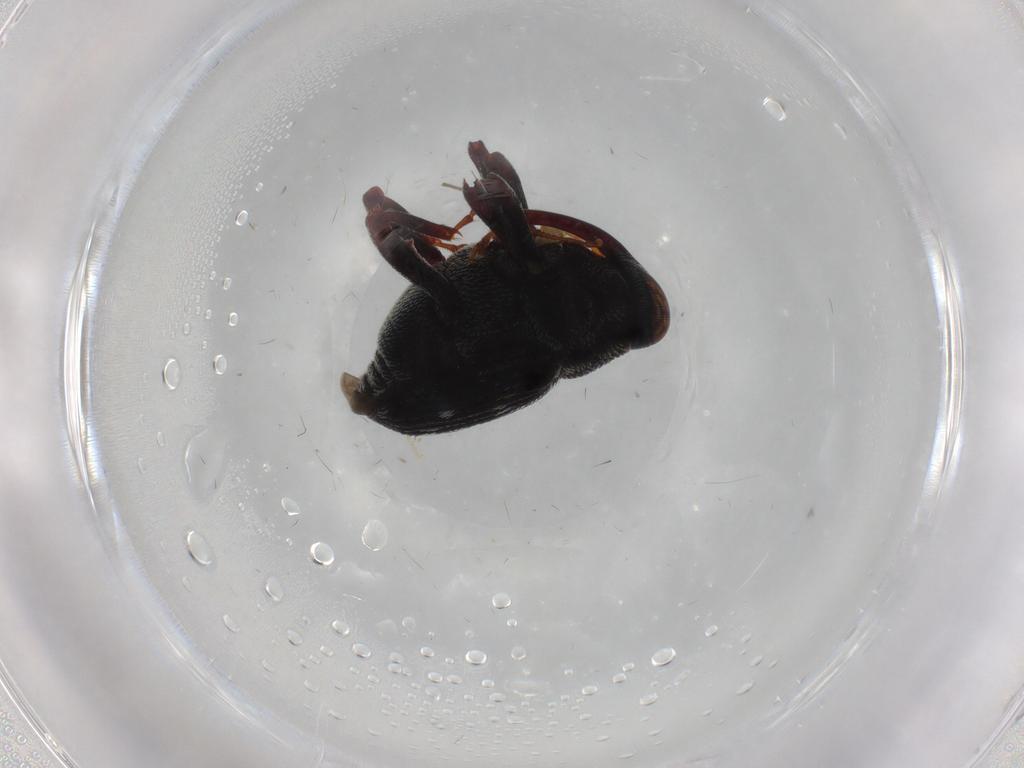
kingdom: Animalia
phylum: Arthropoda
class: Insecta
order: Coleoptera
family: Curculionidae
